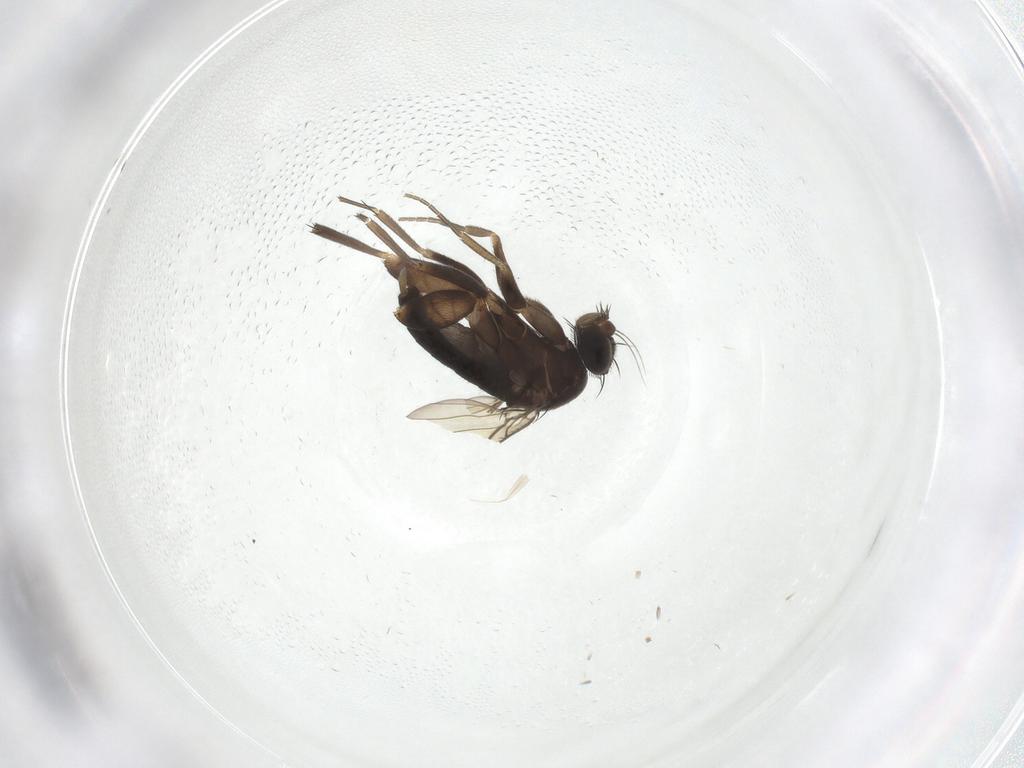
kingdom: Animalia
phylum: Arthropoda
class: Insecta
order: Diptera
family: Phoridae
